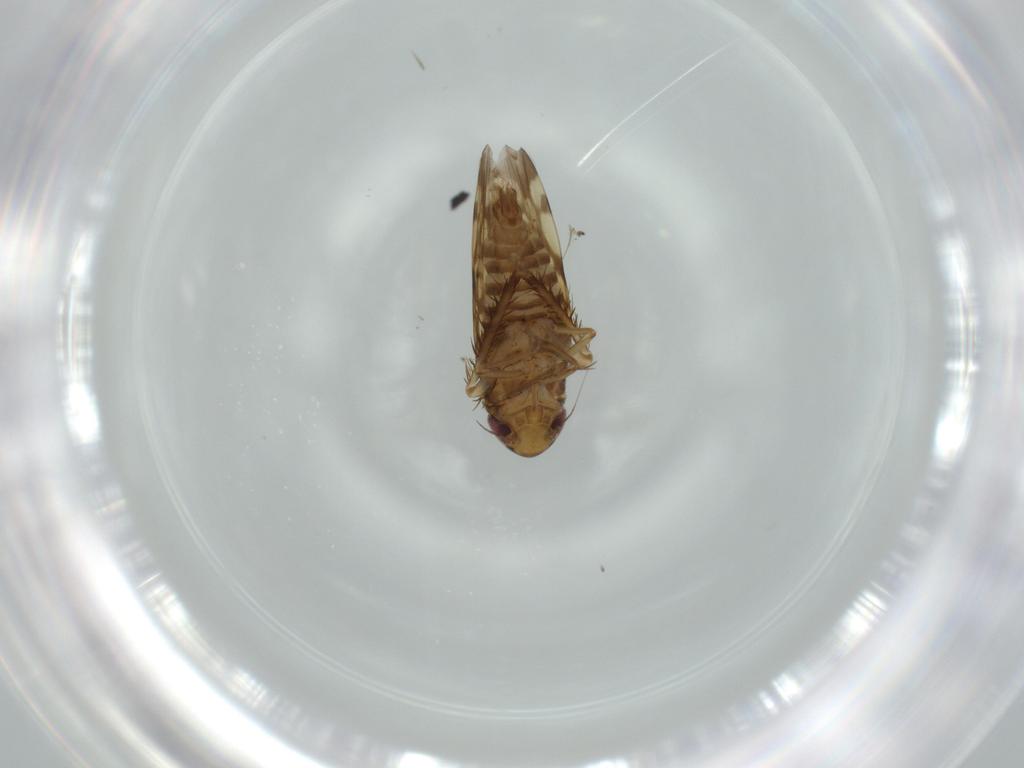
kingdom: Animalia
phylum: Arthropoda
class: Insecta
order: Hemiptera
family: Cicadellidae
